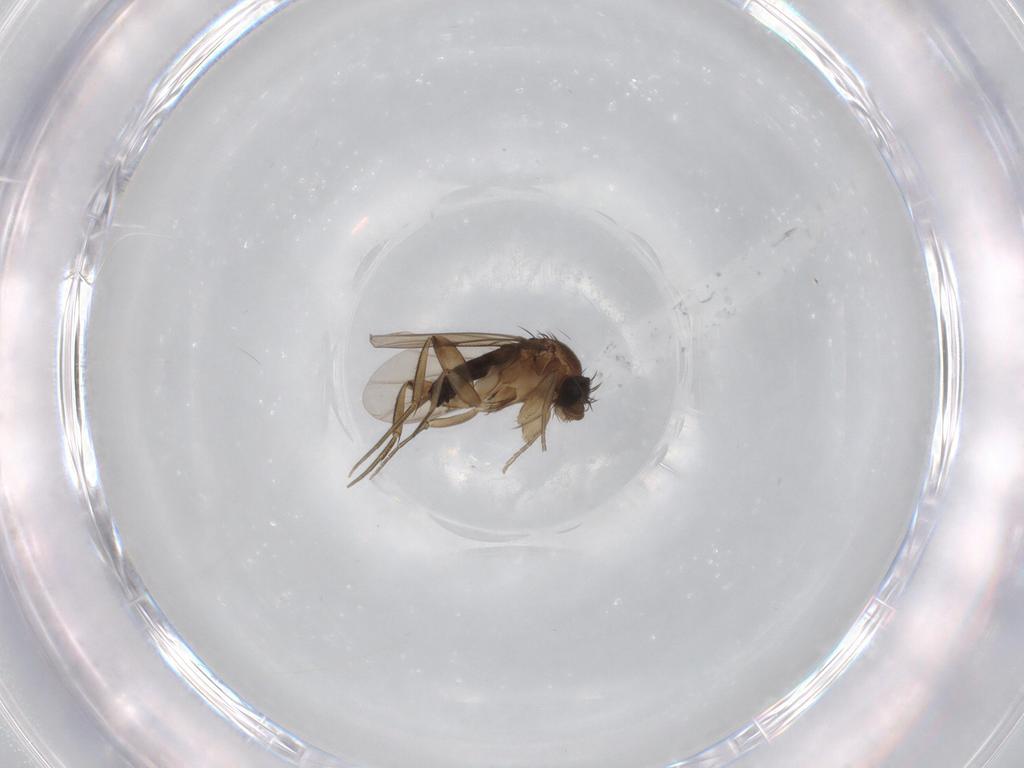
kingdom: Animalia
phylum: Arthropoda
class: Insecta
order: Diptera
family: Phoridae
